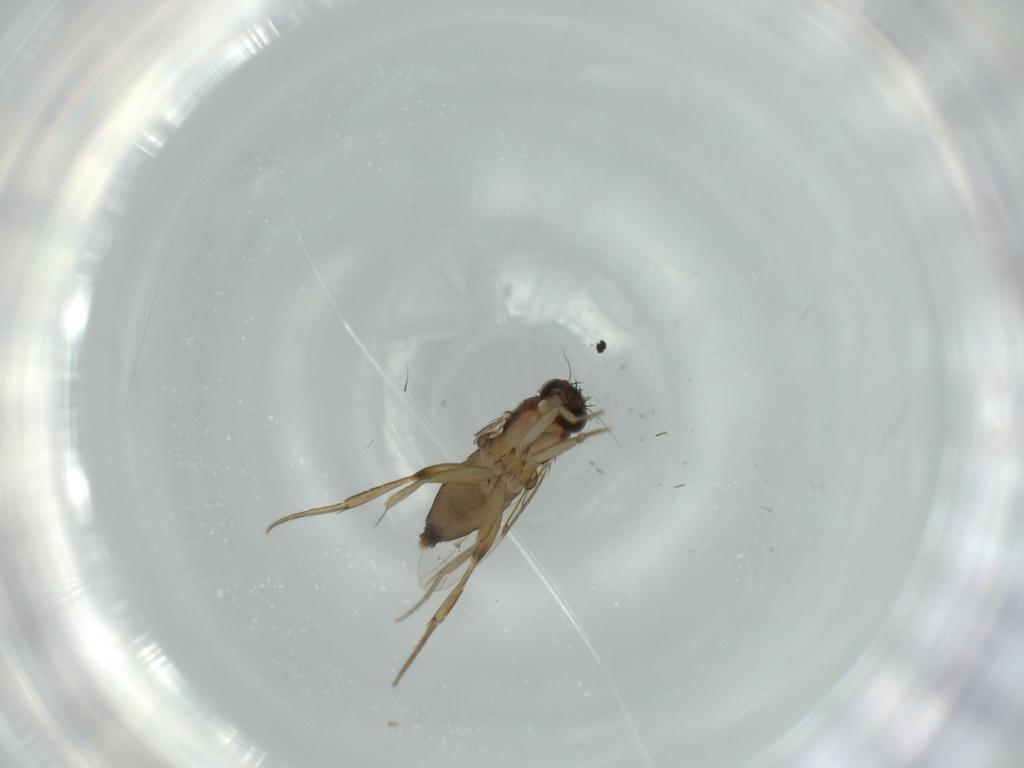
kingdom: Animalia
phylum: Arthropoda
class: Insecta
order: Diptera
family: Phoridae
